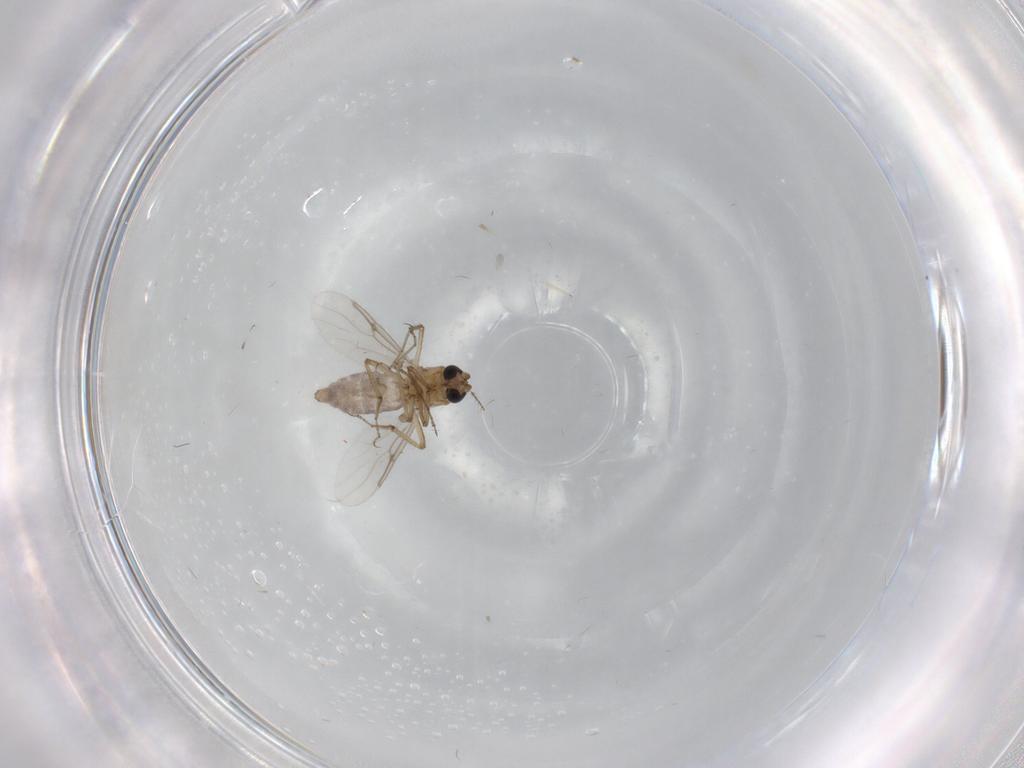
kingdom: Animalia
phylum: Arthropoda
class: Insecta
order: Diptera
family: Ceratopogonidae
